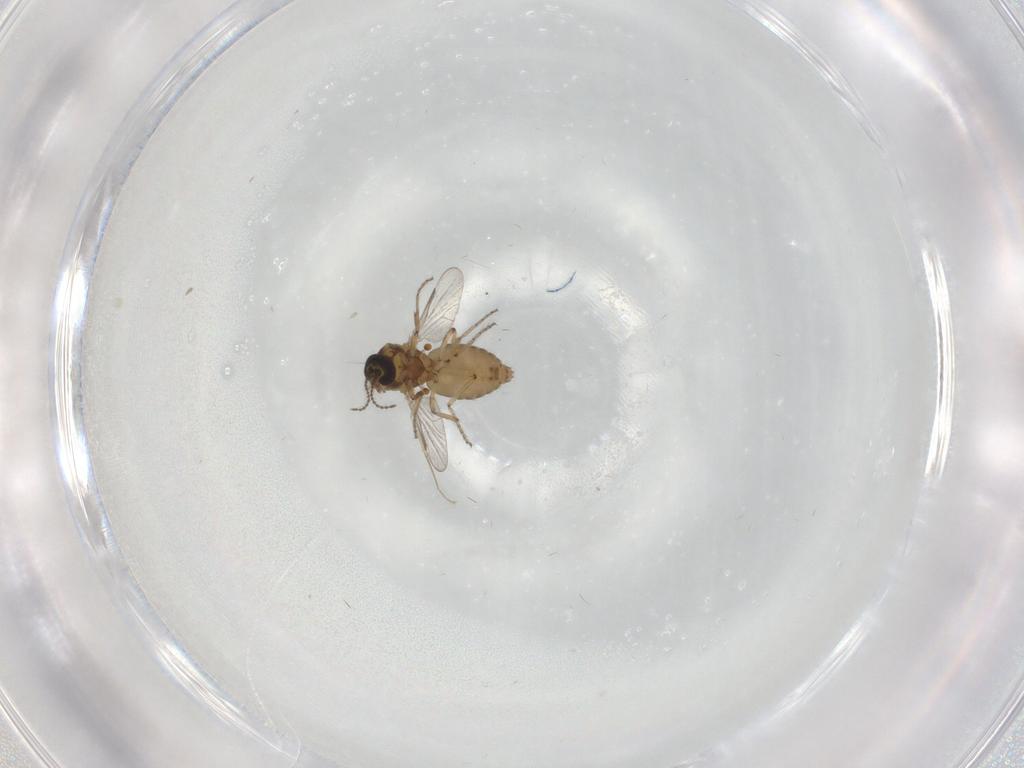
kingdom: Animalia
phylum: Arthropoda
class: Insecta
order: Diptera
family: Ceratopogonidae
